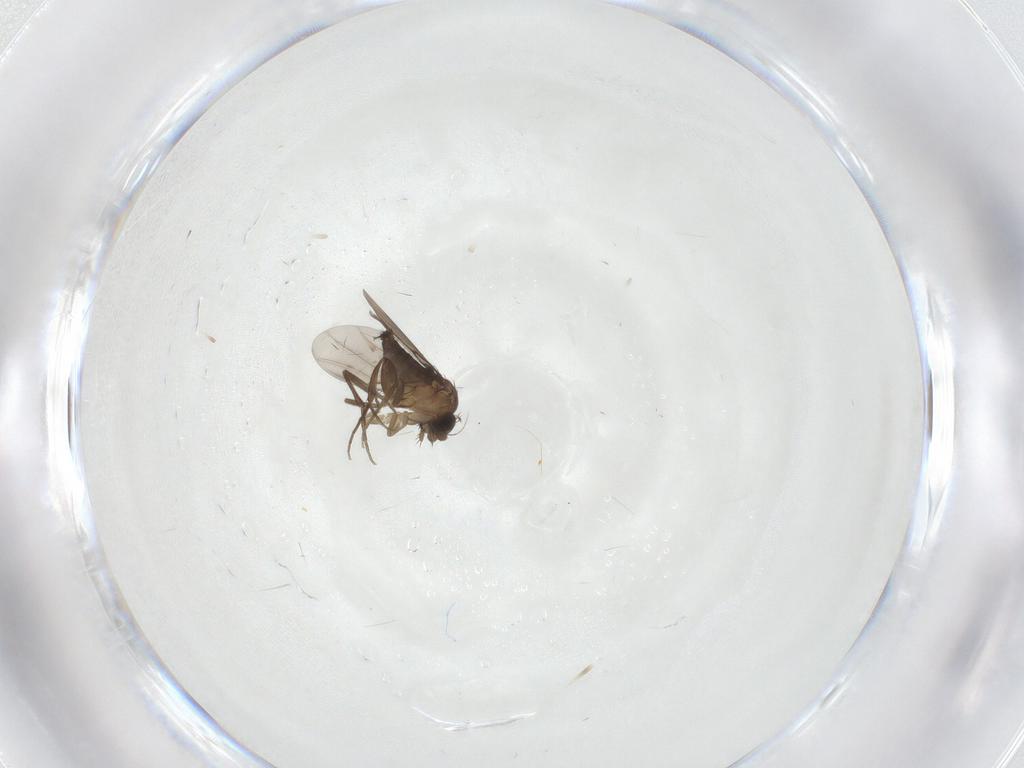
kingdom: Animalia
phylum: Arthropoda
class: Insecta
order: Diptera
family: Phoridae
